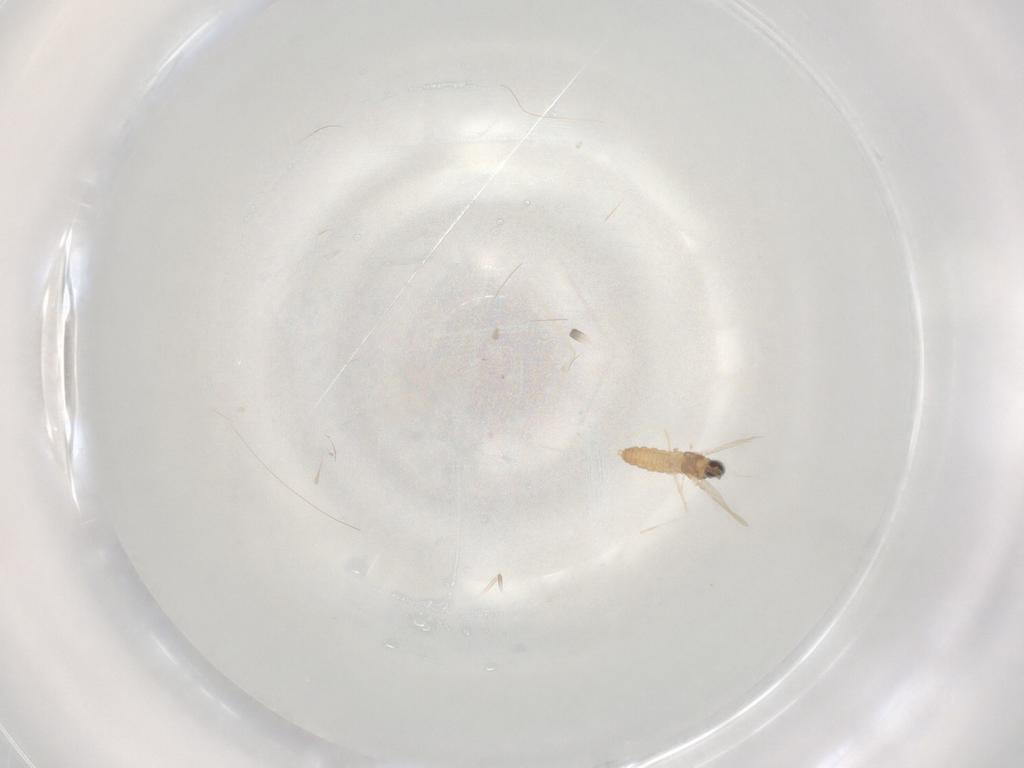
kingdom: Animalia
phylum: Arthropoda
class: Insecta
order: Diptera
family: Cecidomyiidae
